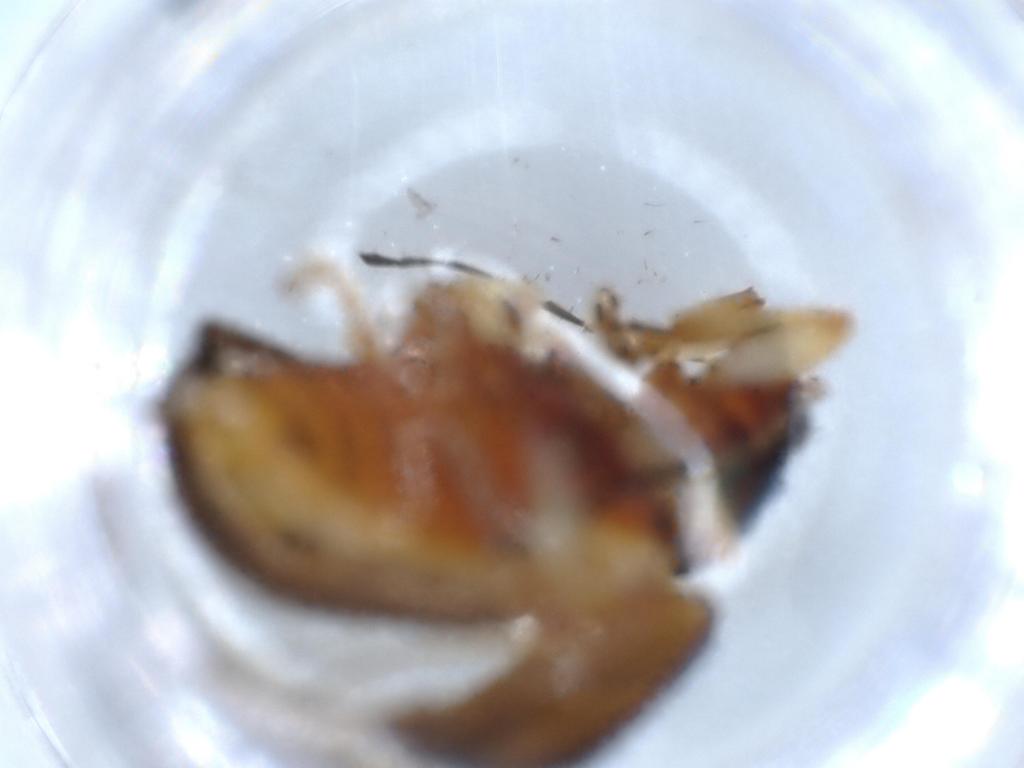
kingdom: Animalia
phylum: Arthropoda
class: Insecta
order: Coleoptera
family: Chrysomelidae
